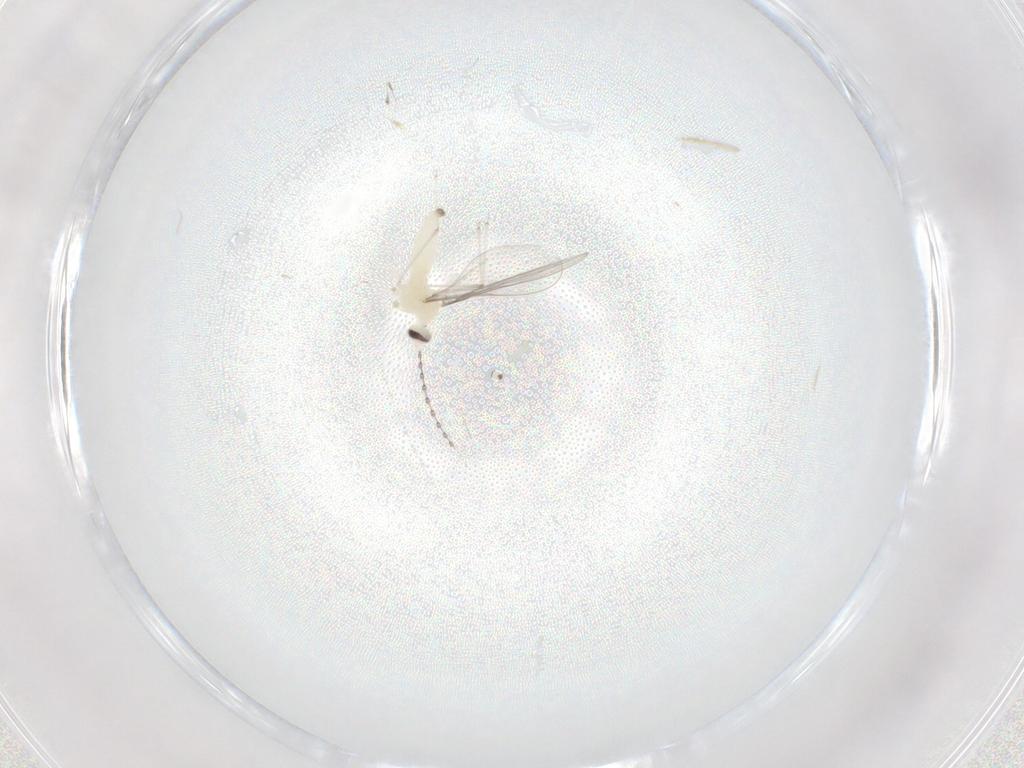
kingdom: Animalia
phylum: Arthropoda
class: Insecta
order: Diptera
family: Cecidomyiidae
